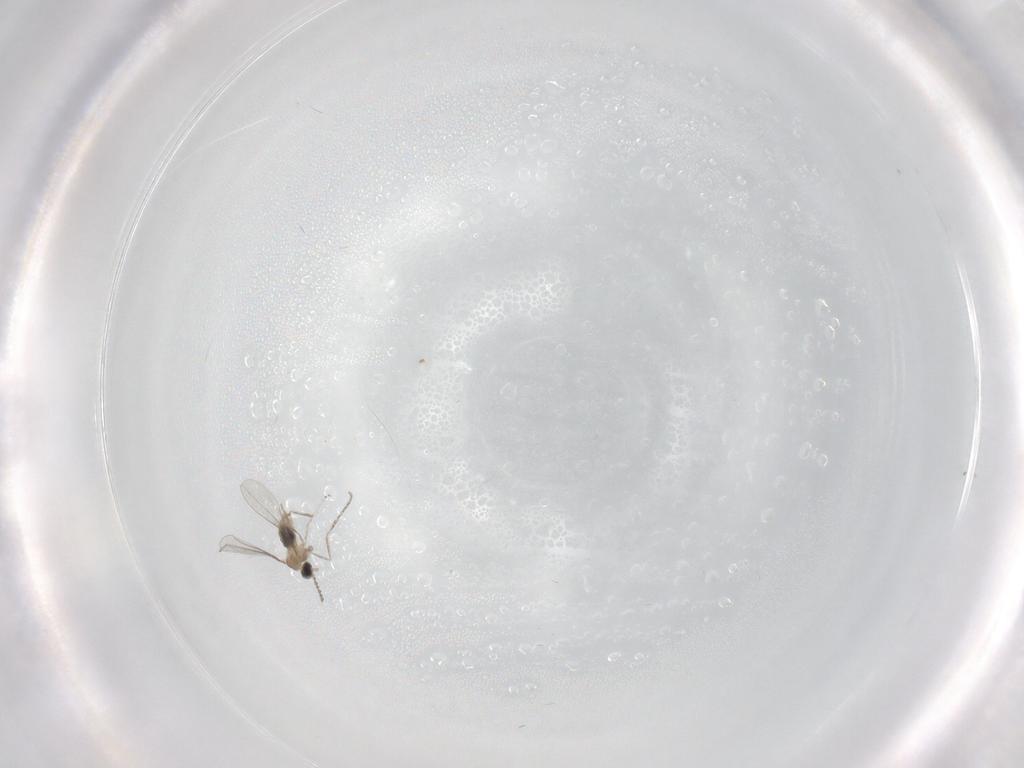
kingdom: Animalia
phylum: Arthropoda
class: Insecta
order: Diptera
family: Cecidomyiidae
